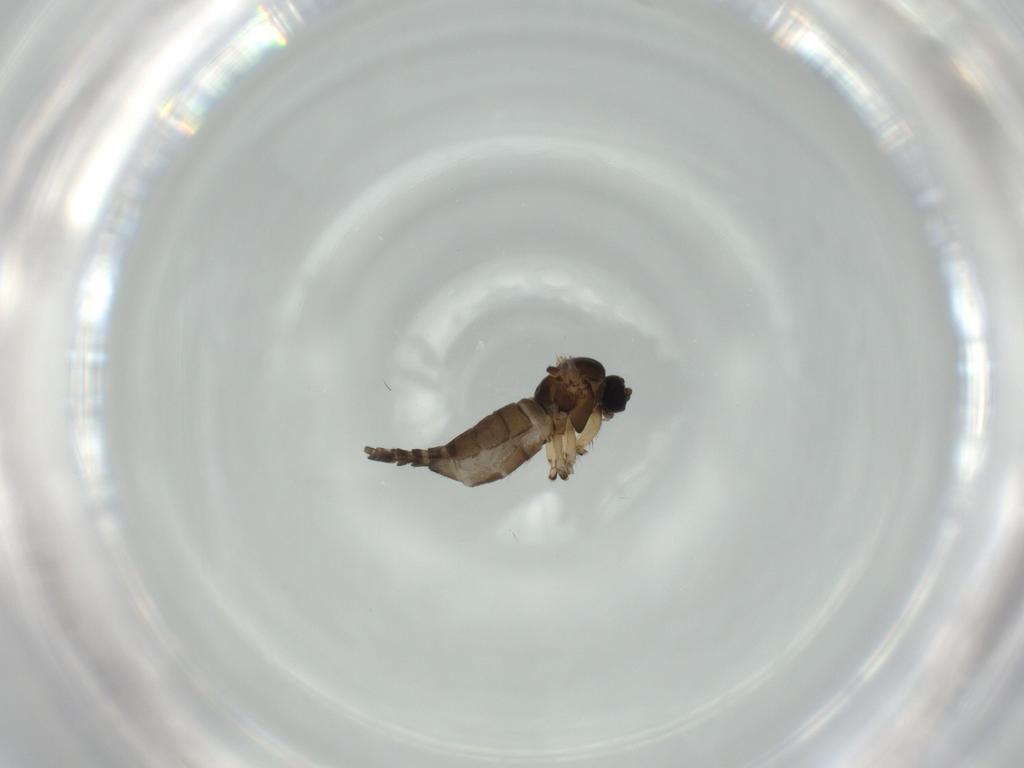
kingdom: Animalia
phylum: Arthropoda
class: Insecta
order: Diptera
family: Sciaridae
